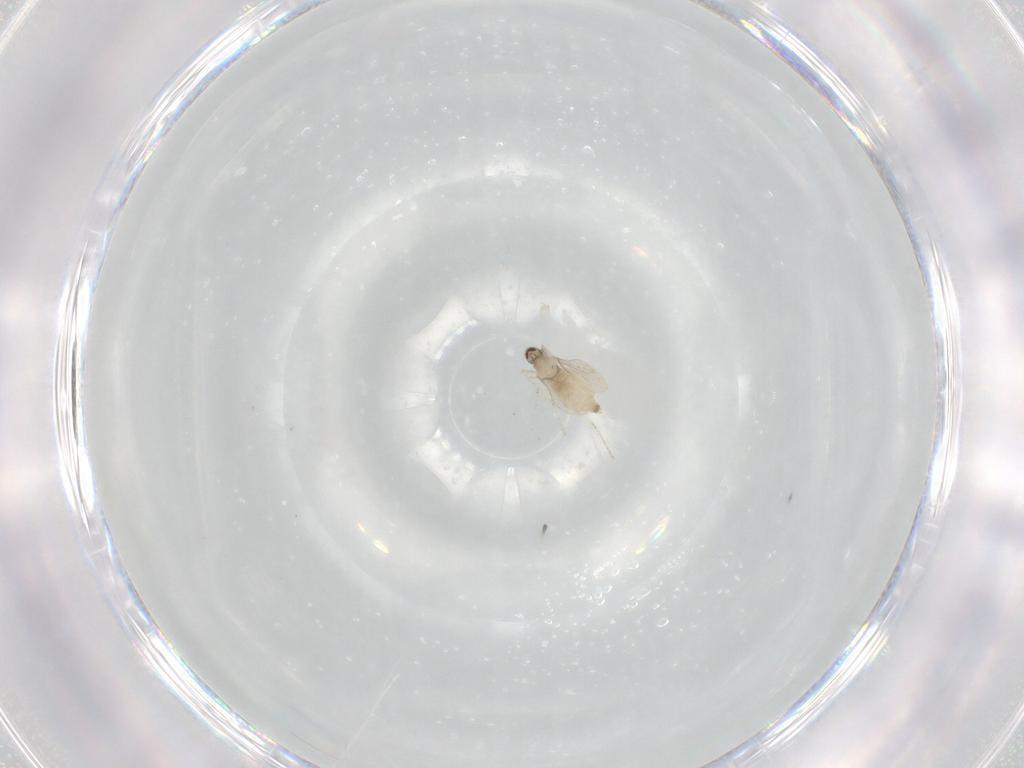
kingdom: Animalia
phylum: Arthropoda
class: Insecta
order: Diptera
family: Cecidomyiidae
